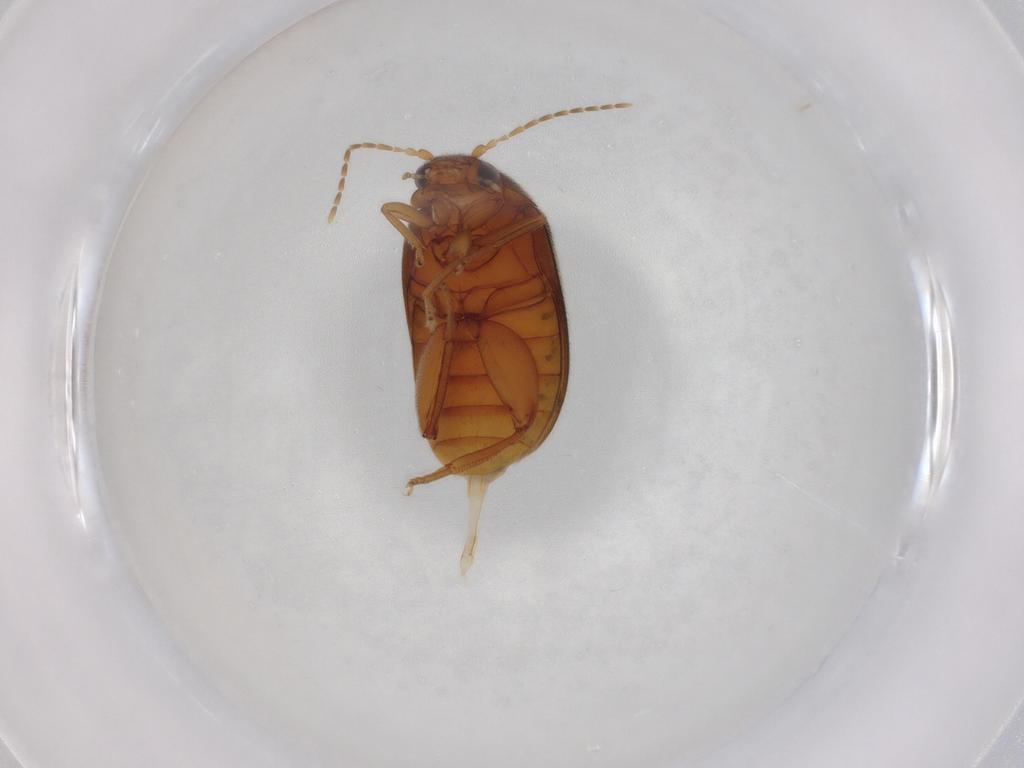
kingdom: Animalia
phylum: Arthropoda
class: Insecta
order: Coleoptera
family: Scirtidae
